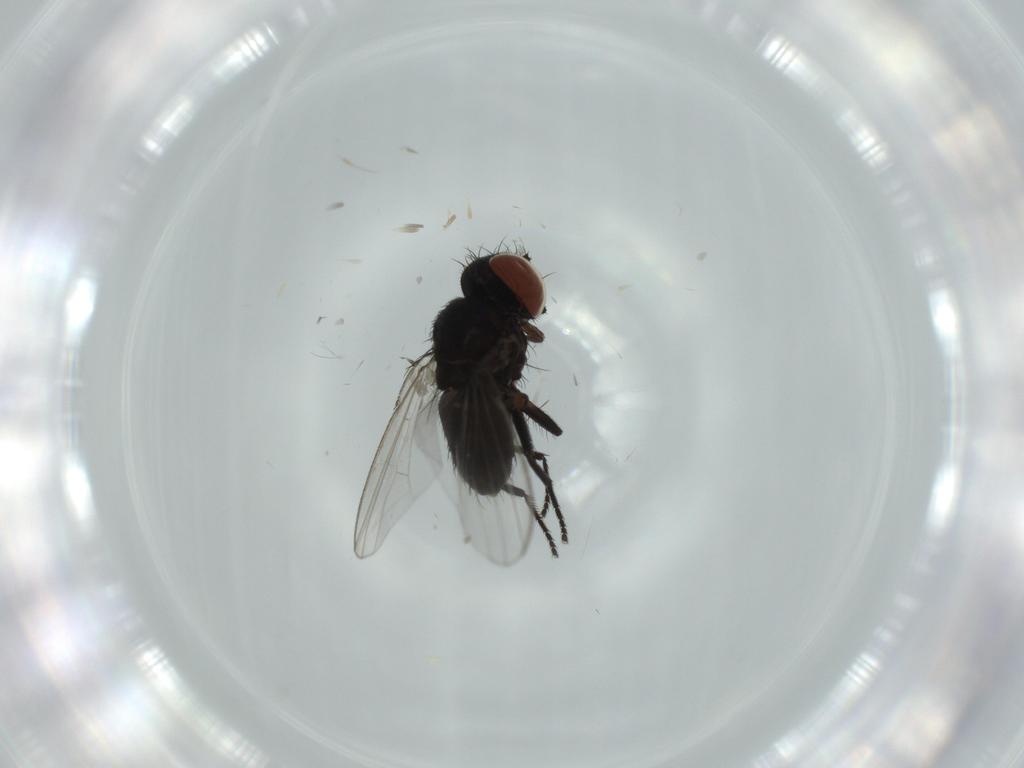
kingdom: Animalia
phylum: Arthropoda
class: Insecta
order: Diptera
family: Milichiidae
